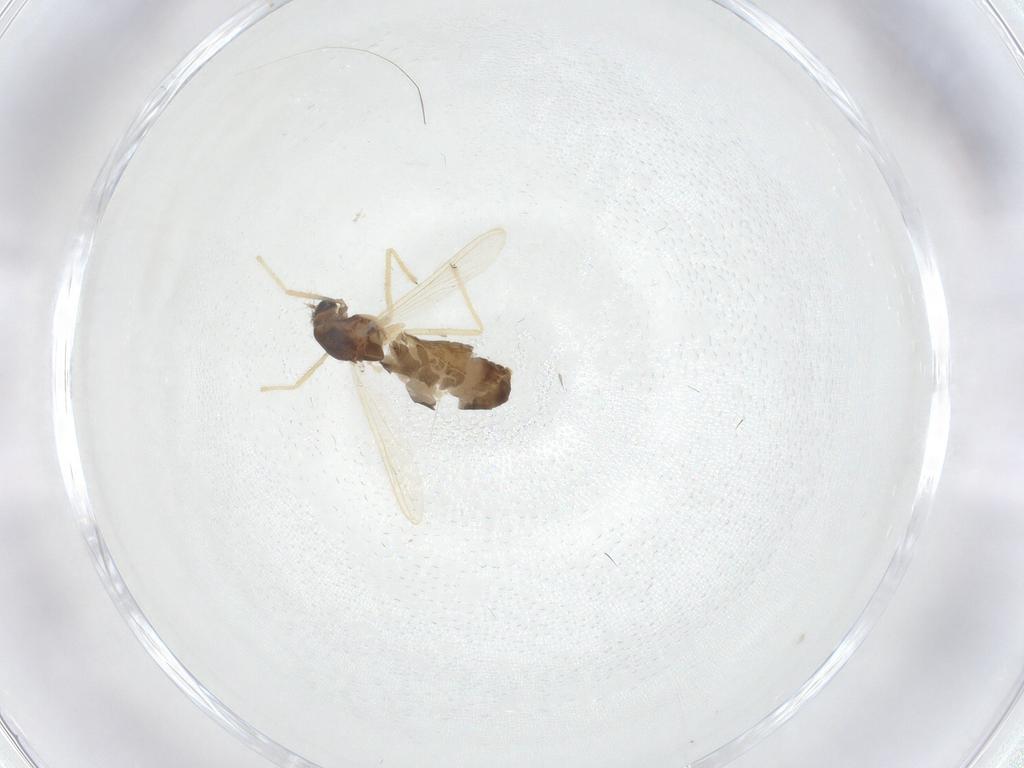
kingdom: Animalia
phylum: Arthropoda
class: Insecta
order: Diptera
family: Chironomidae
